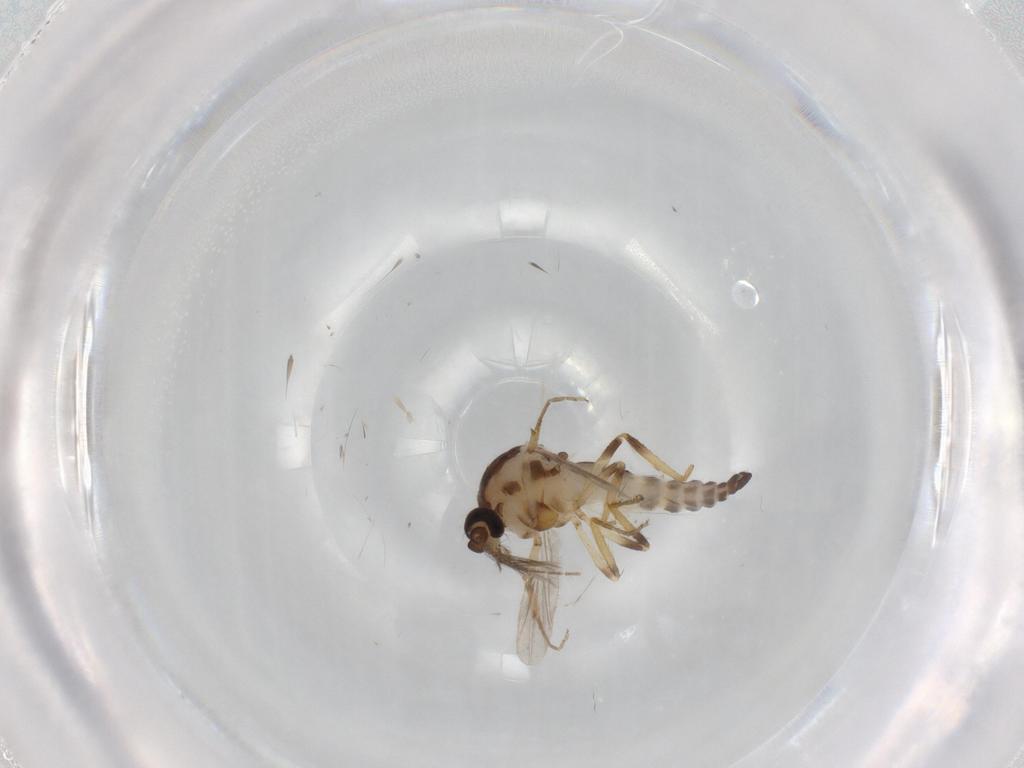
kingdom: Animalia
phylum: Arthropoda
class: Insecta
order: Diptera
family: Ceratopogonidae
